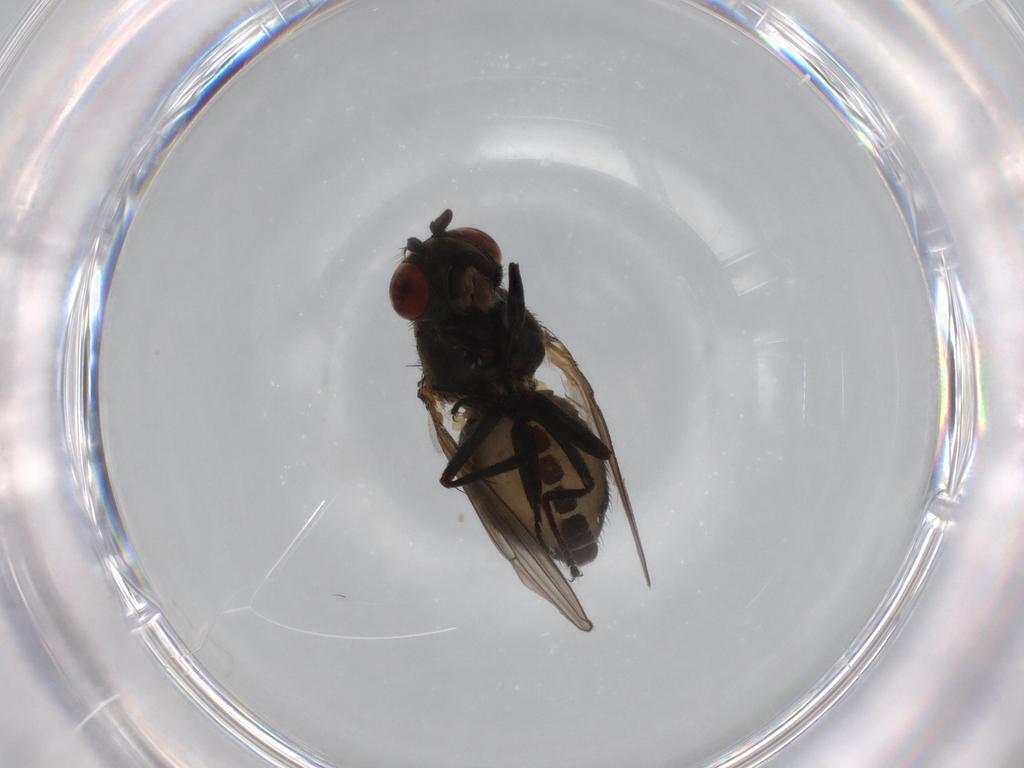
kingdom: Animalia
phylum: Arthropoda
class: Insecta
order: Diptera
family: Ephydridae
